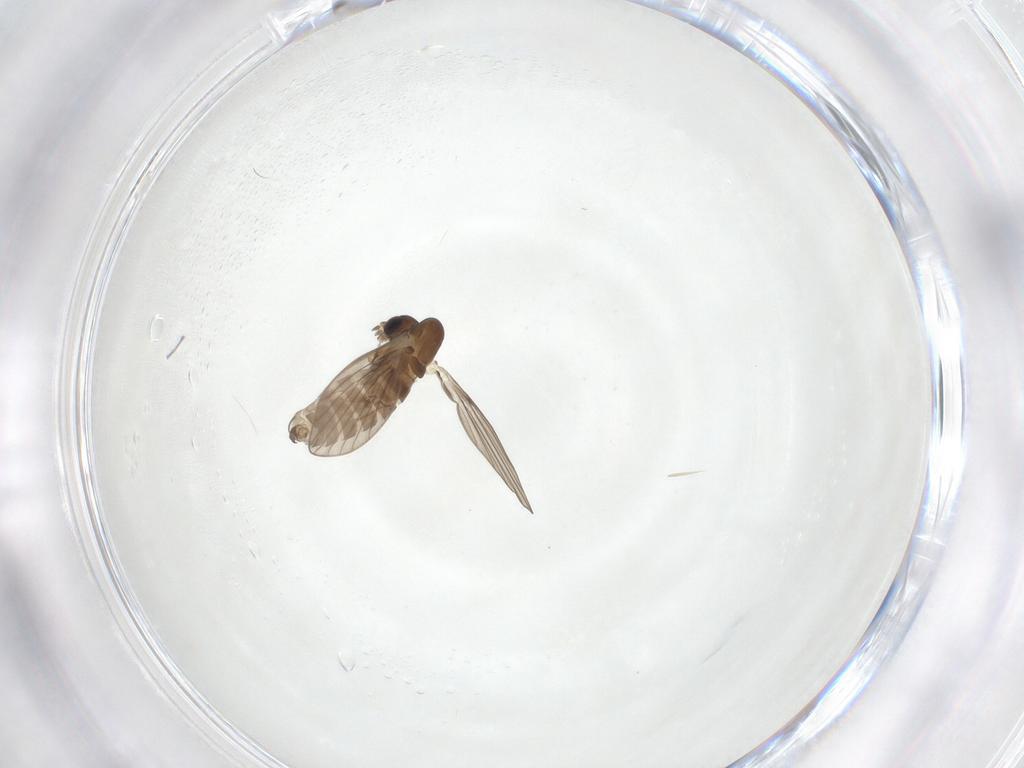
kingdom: Animalia
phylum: Arthropoda
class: Insecta
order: Diptera
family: Psychodidae
